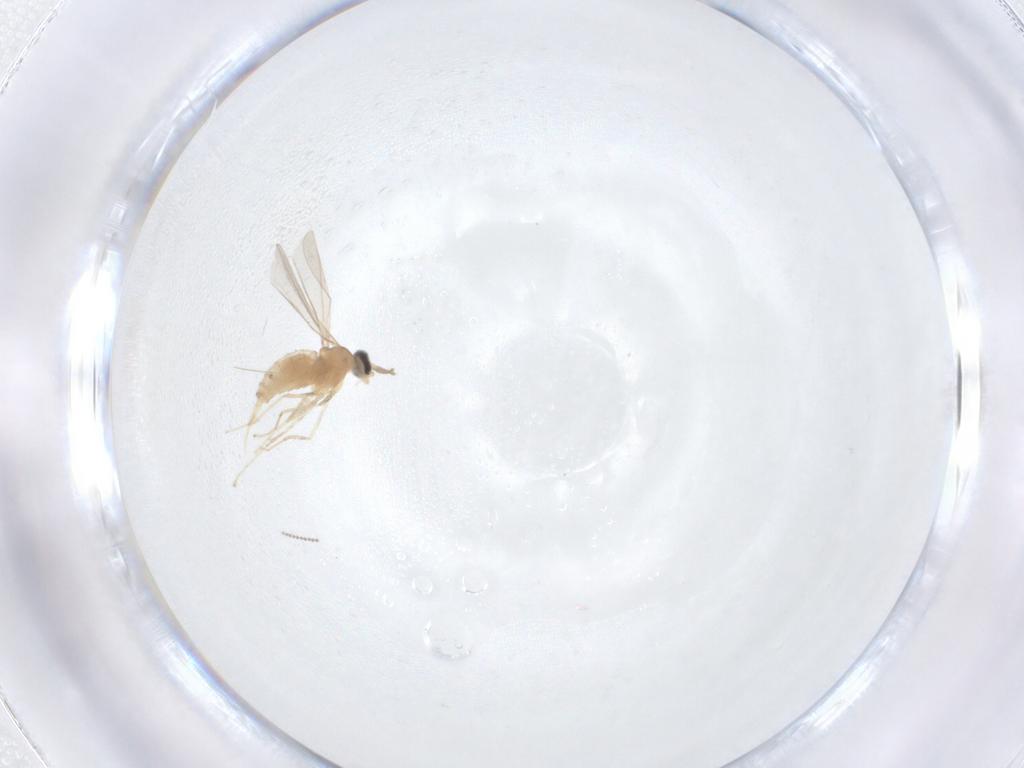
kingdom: Animalia
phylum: Arthropoda
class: Insecta
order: Diptera
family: Cecidomyiidae
